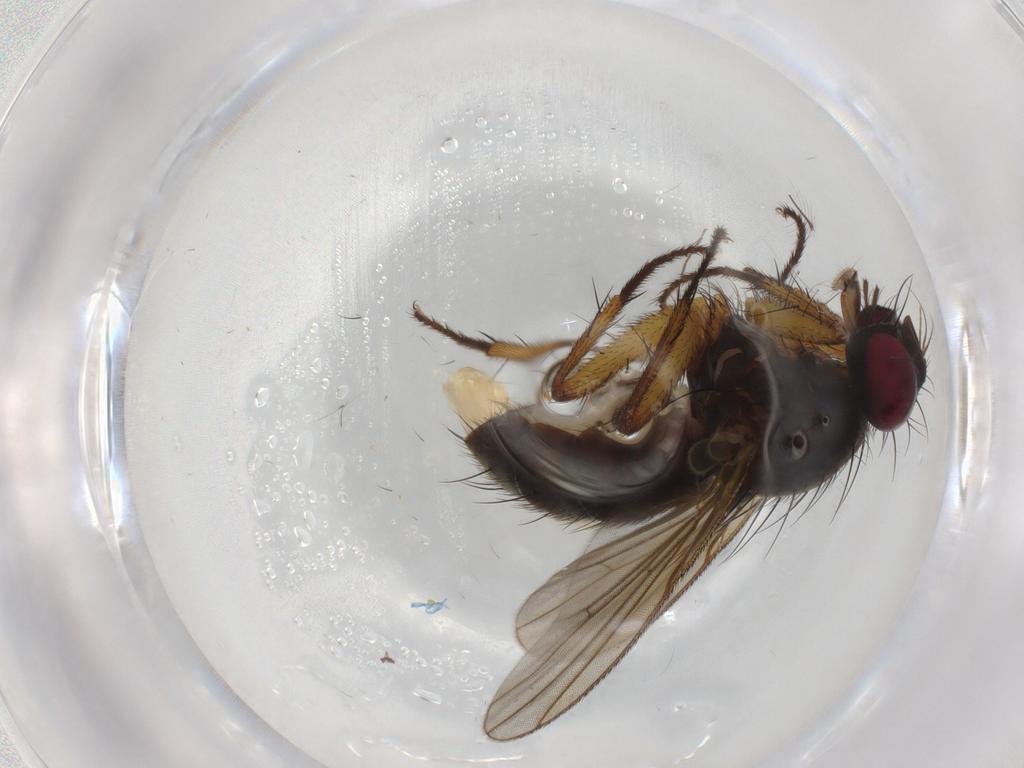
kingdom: Animalia
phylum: Arthropoda
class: Insecta
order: Diptera
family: Muscidae
